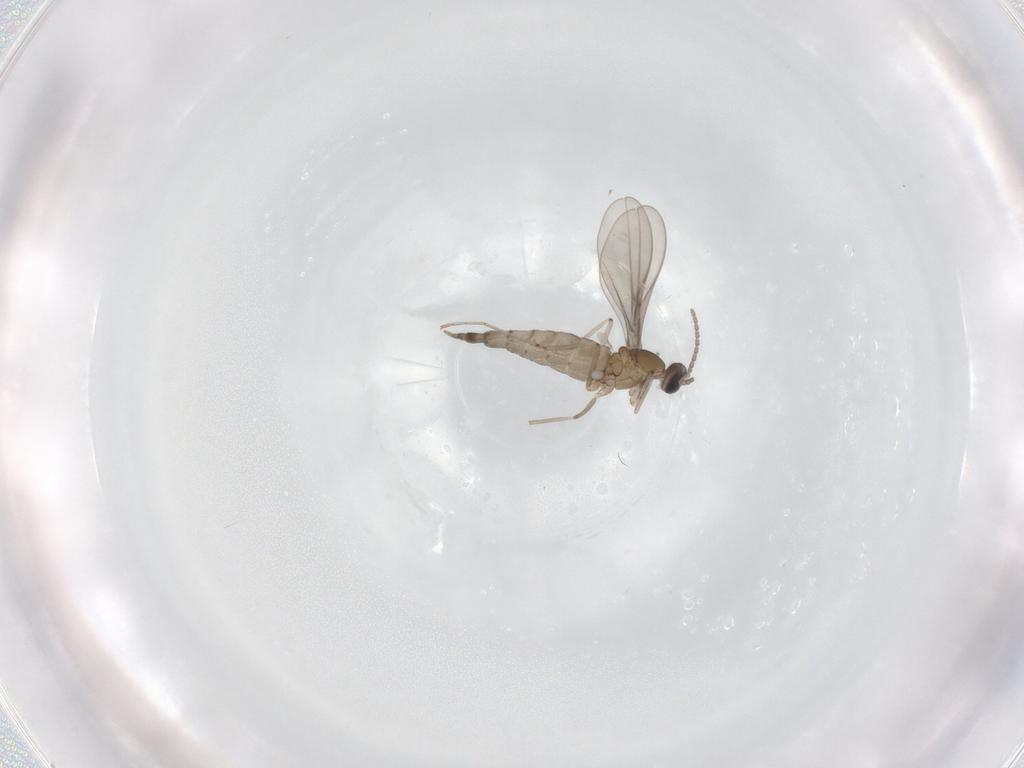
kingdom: Animalia
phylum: Arthropoda
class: Insecta
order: Diptera
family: Cecidomyiidae
